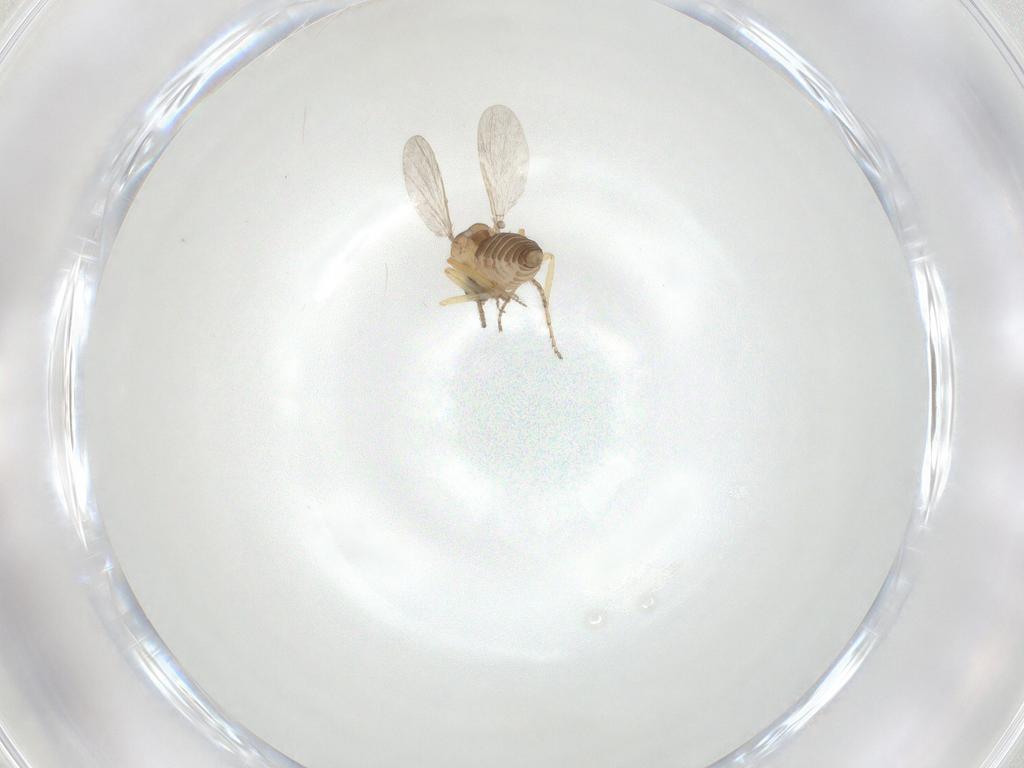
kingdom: Animalia
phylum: Arthropoda
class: Insecta
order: Diptera
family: Ceratopogonidae
